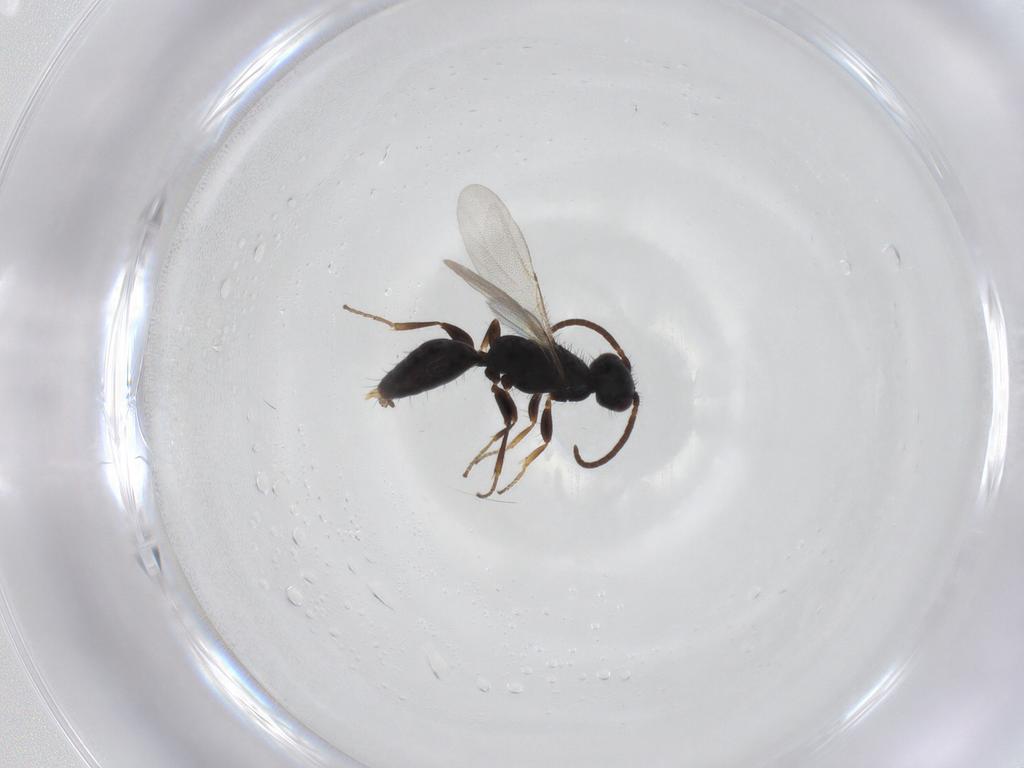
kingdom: Animalia
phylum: Arthropoda
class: Insecta
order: Hymenoptera
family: Bethylidae
